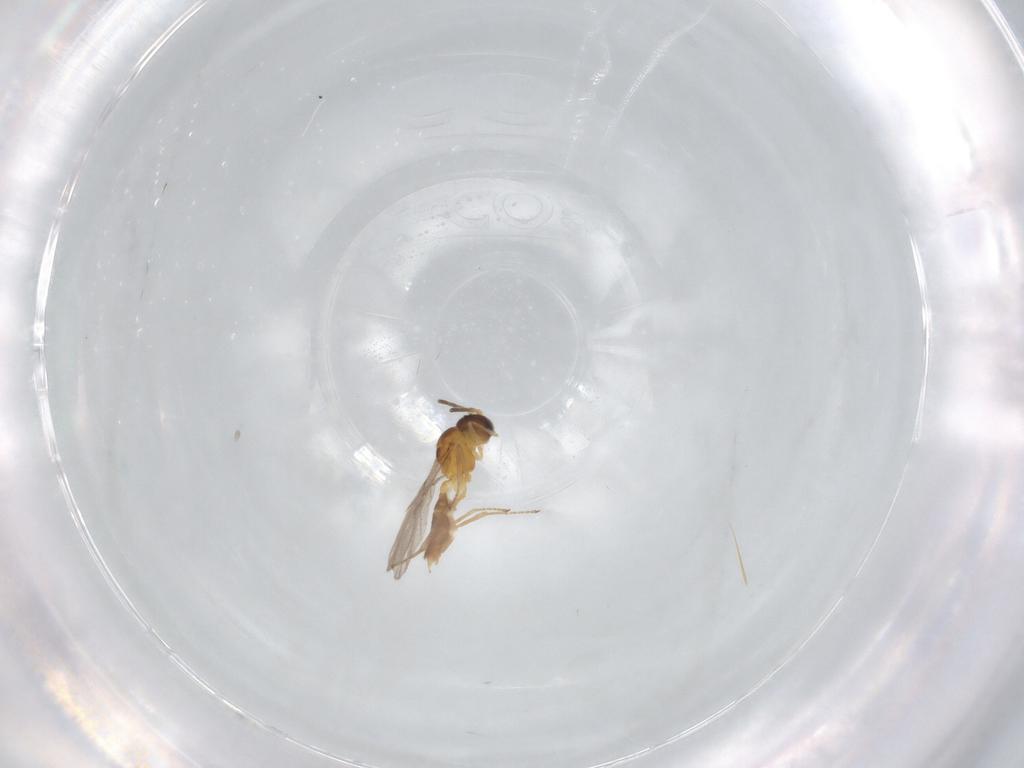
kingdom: Animalia
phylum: Arthropoda
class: Insecta
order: Hymenoptera
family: Braconidae
